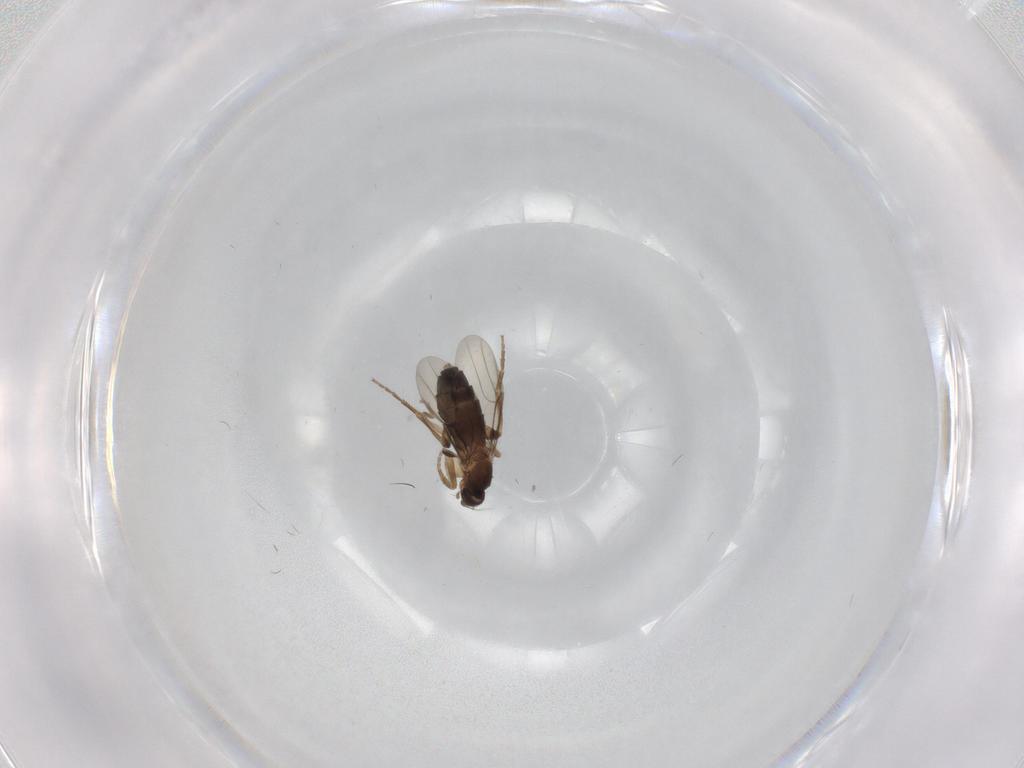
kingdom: Animalia
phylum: Arthropoda
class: Insecta
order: Diptera
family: Phoridae
